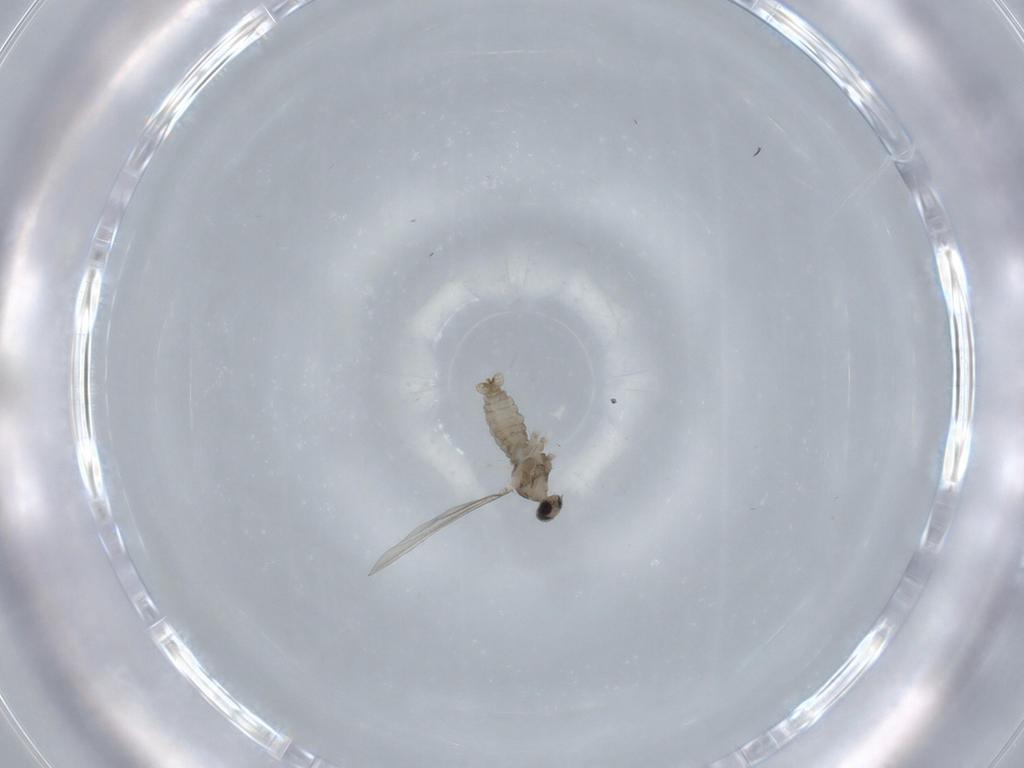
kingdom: Animalia
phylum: Arthropoda
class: Insecta
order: Diptera
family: Cecidomyiidae
